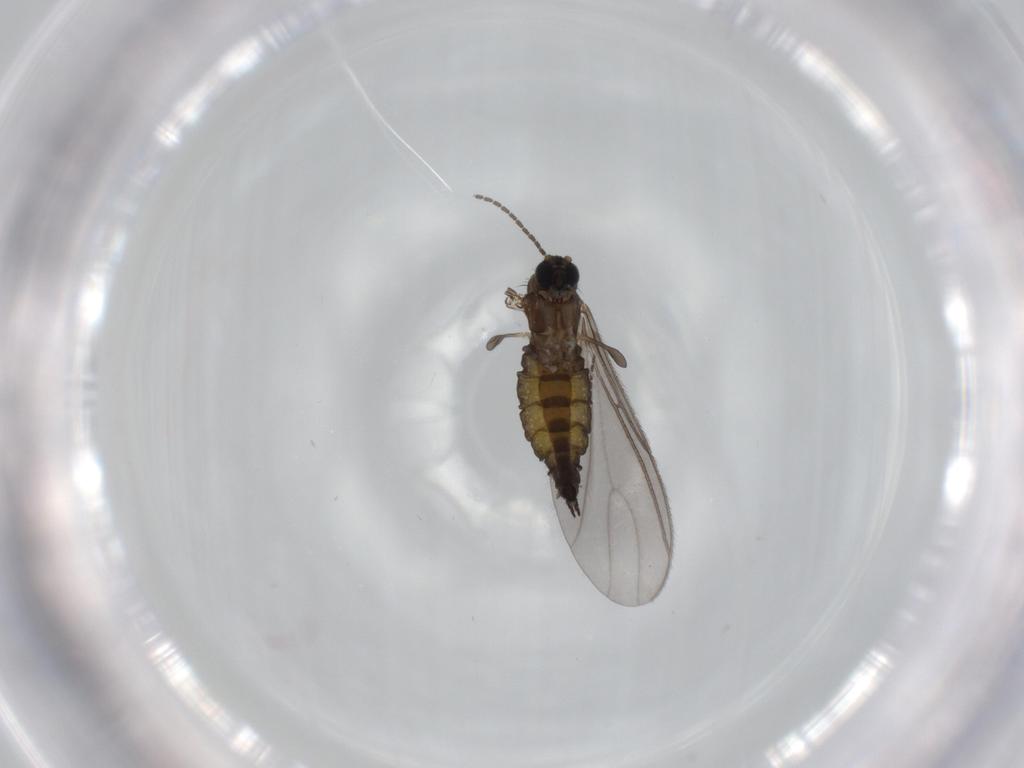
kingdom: Animalia
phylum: Arthropoda
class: Insecta
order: Diptera
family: Sciaridae
